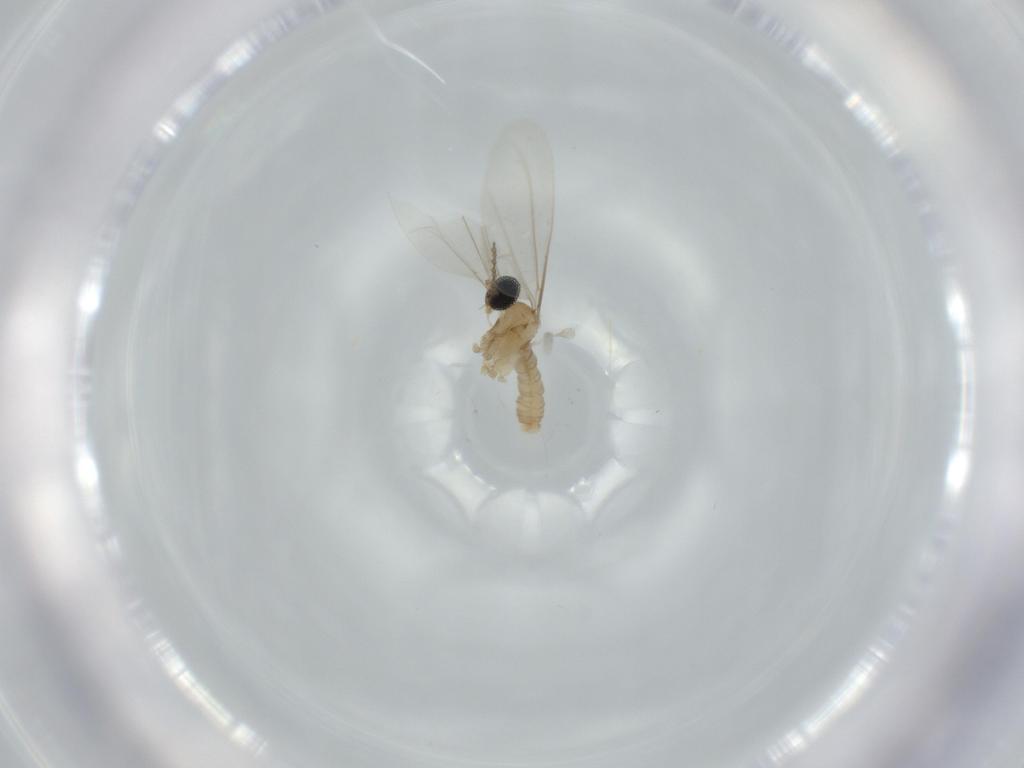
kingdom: Animalia
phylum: Arthropoda
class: Insecta
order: Diptera
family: Cecidomyiidae
